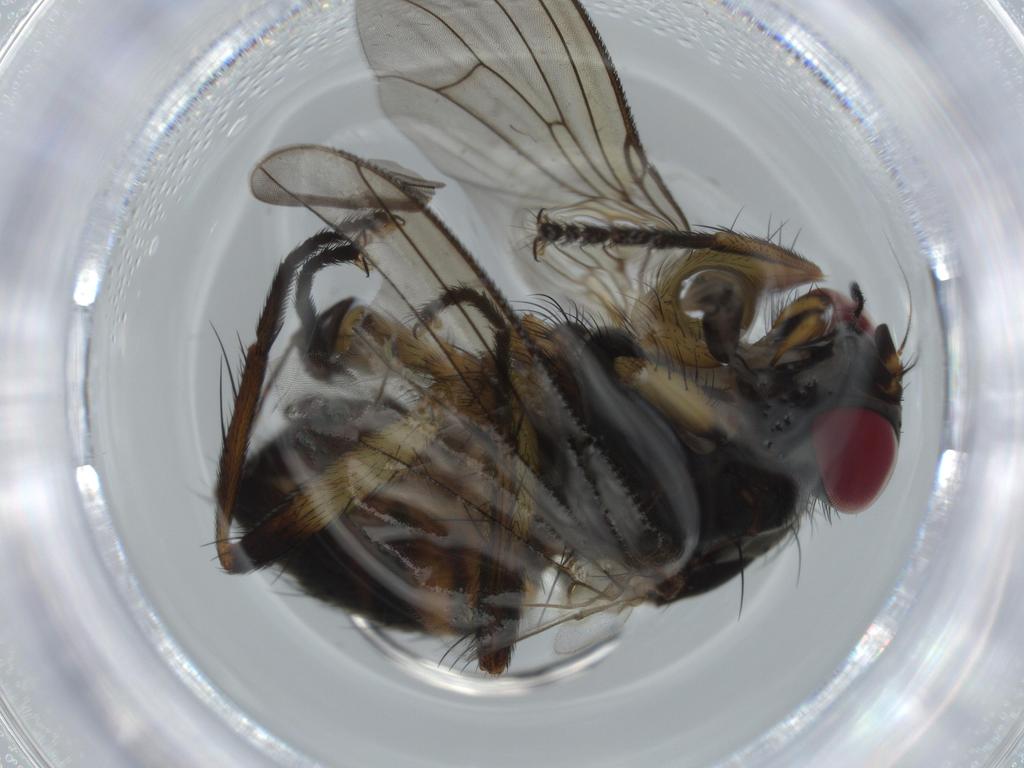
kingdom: Animalia
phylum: Arthropoda
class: Insecta
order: Diptera
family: Muscidae
